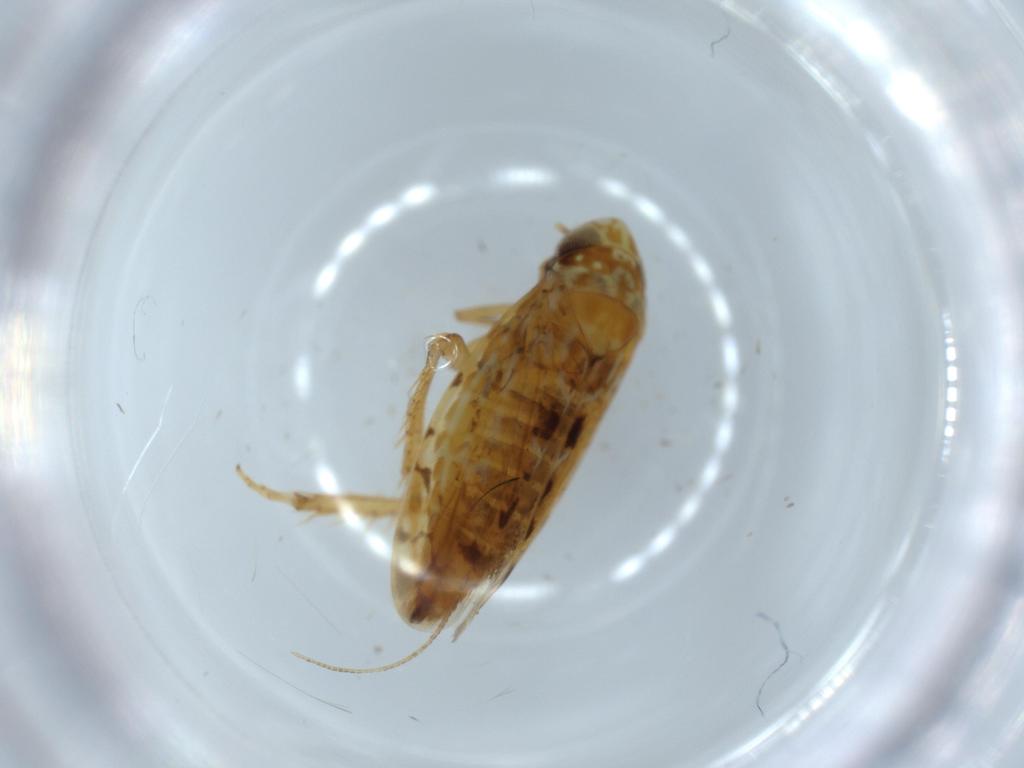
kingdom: Animalia
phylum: Arthropoda
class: Insecta
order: Hemiptera
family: Cicadellidae
